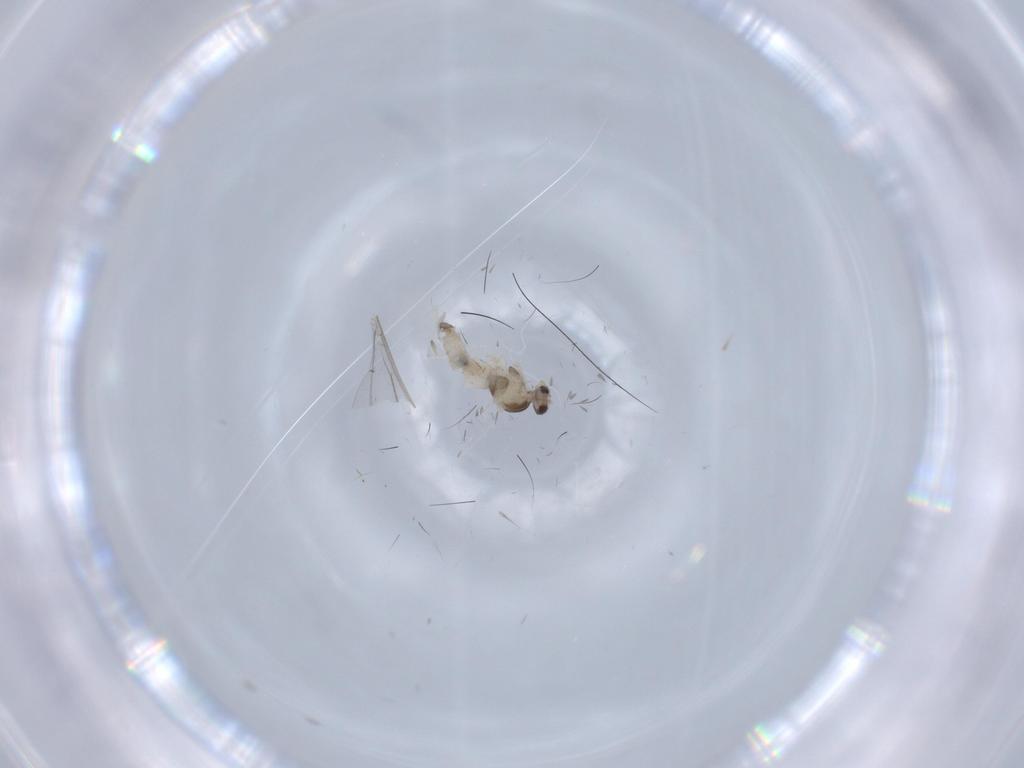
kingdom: Animalia
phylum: Arthropoda
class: Insecta
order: Diptera
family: Cecidomyiidae
